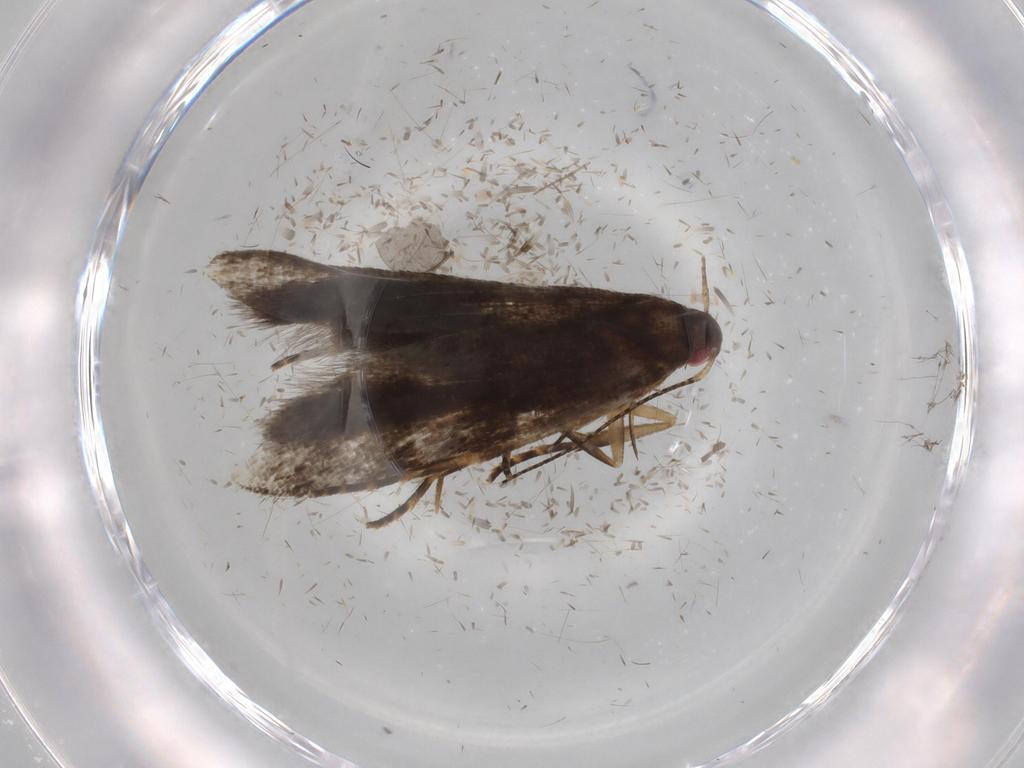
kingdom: Animalia
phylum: Arthropoda
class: Insecta
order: Lepidoptera
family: Gelechiidae
